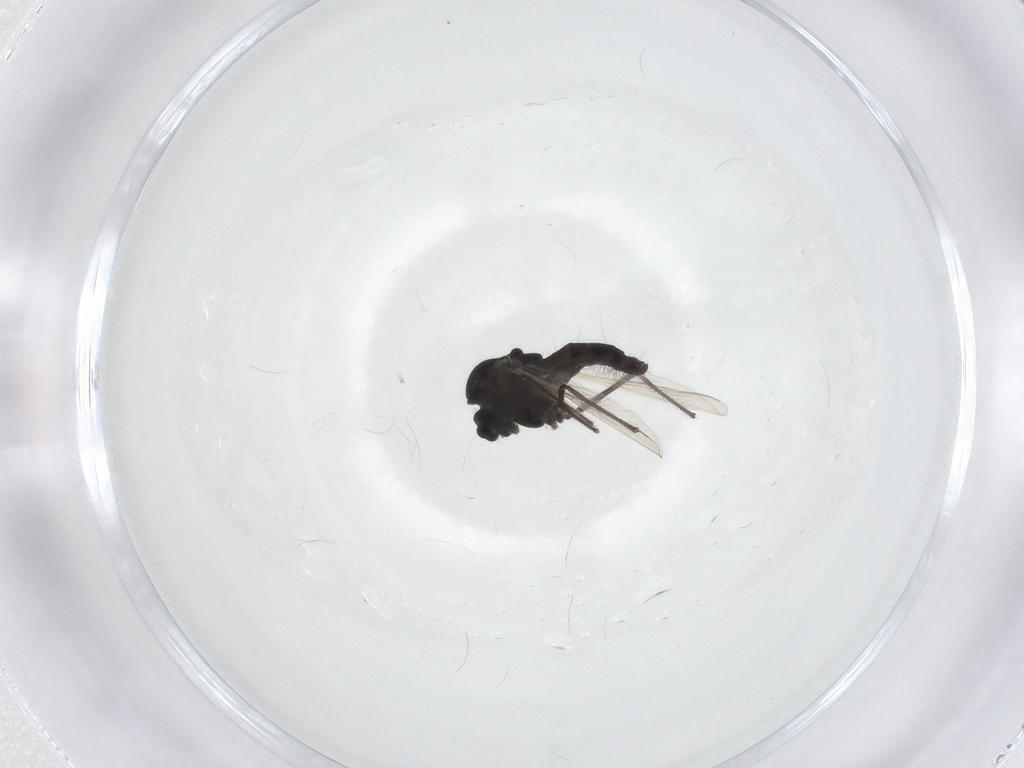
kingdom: Animalia
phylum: Arthropoda
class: Insecta
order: Diptera
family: Chironomidae
